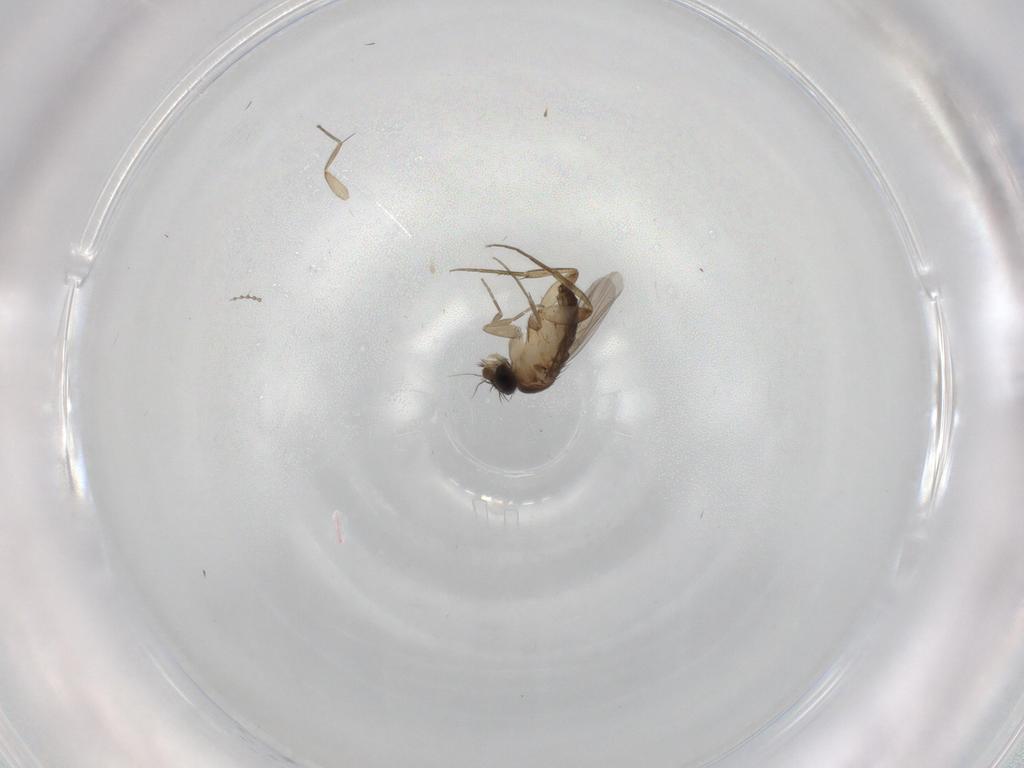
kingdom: Animalia
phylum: Arthropoda
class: Insecta
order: Diptera
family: Phoridae
